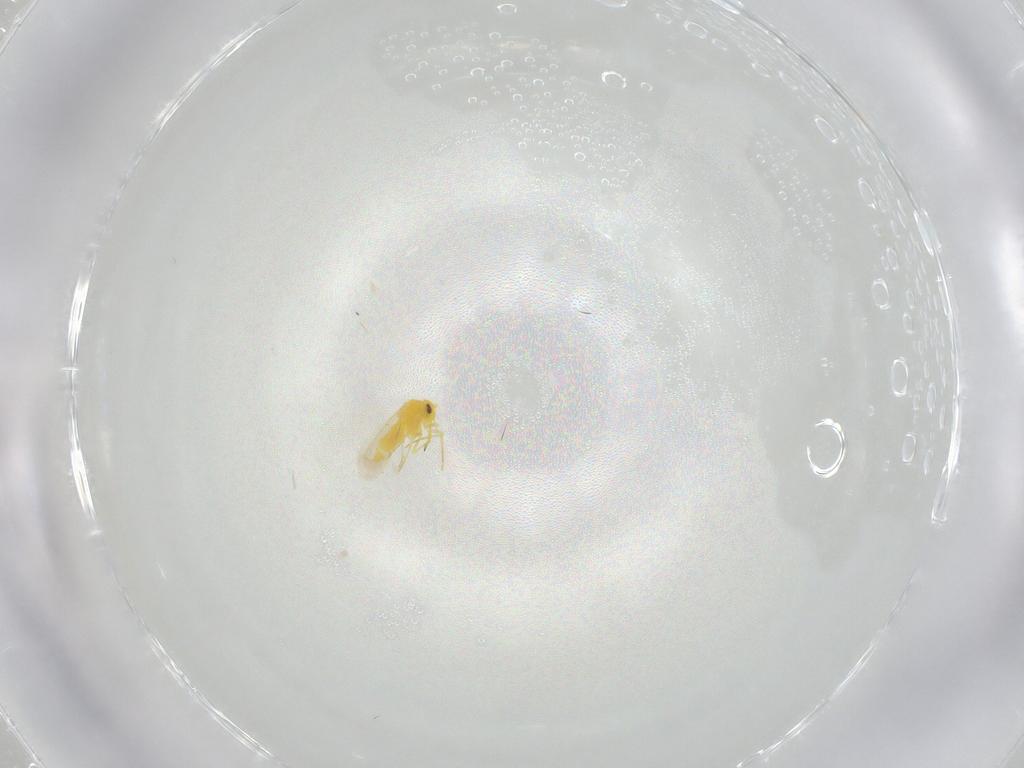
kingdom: Animalia
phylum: Arthropoda
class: Insecta
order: Hemiptera
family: Aleyrodidae
